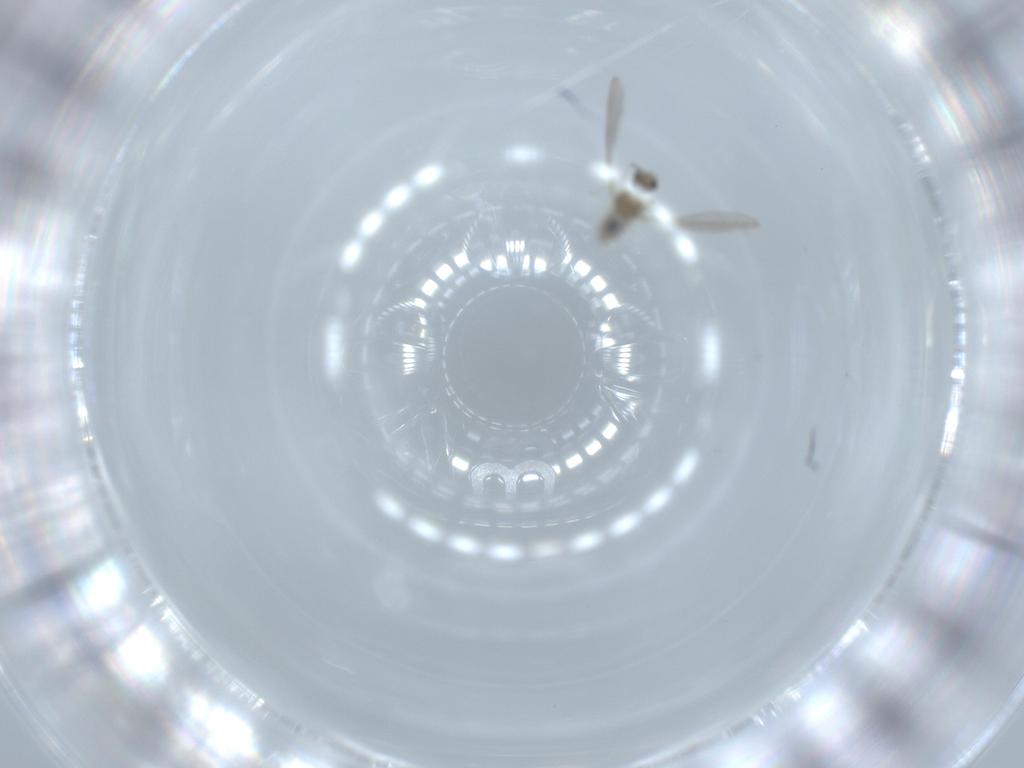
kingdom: Animalia
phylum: Arthropoda
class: Insecta
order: Diptera
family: Cecidomyiidae
